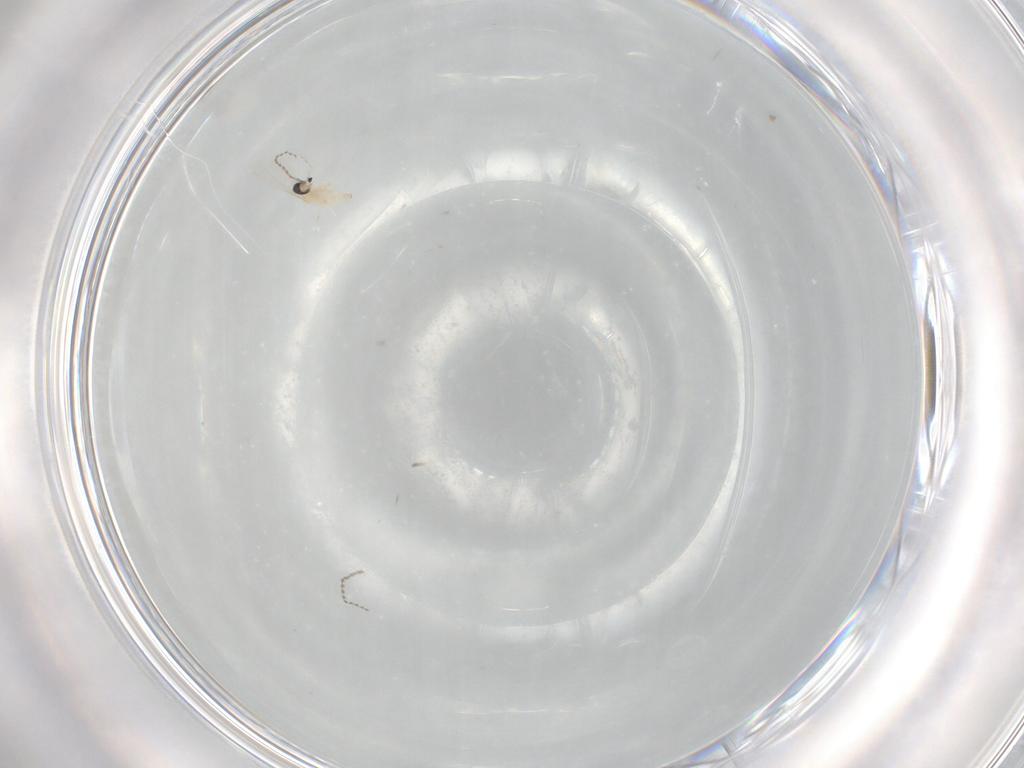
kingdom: Animalia
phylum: Arthropoda
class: Insecta
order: Diptera
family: Cecidomyiidae
